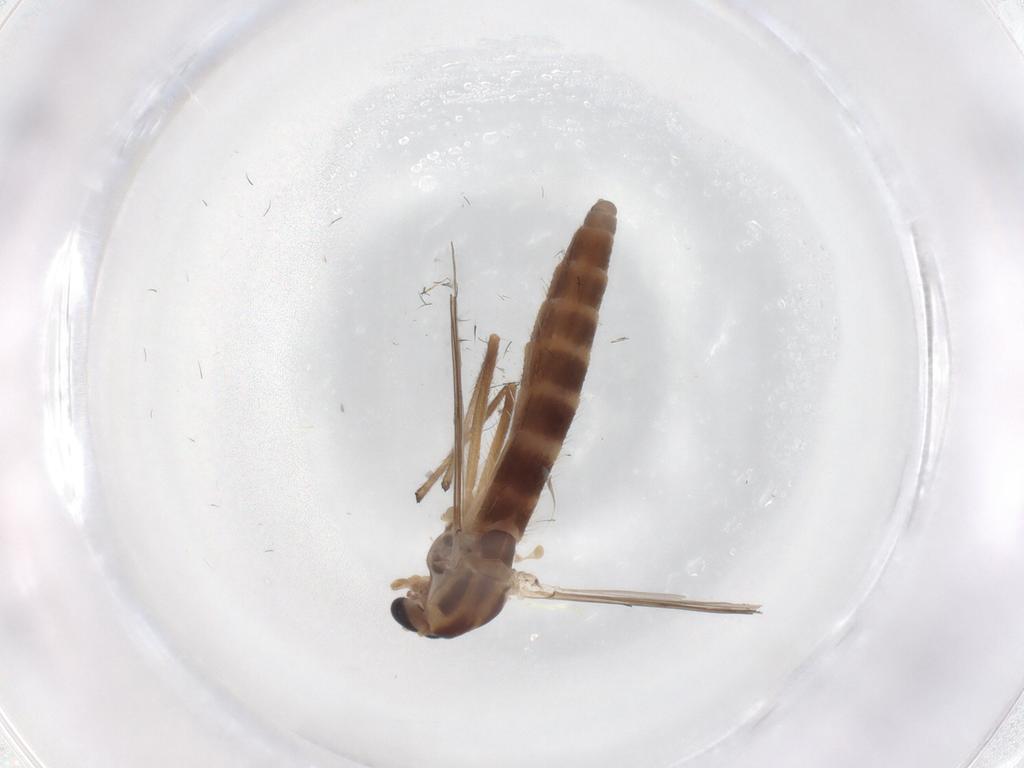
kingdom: Animalia
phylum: Arthropoda
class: Insecta
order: Diptera
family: Chironomidae
